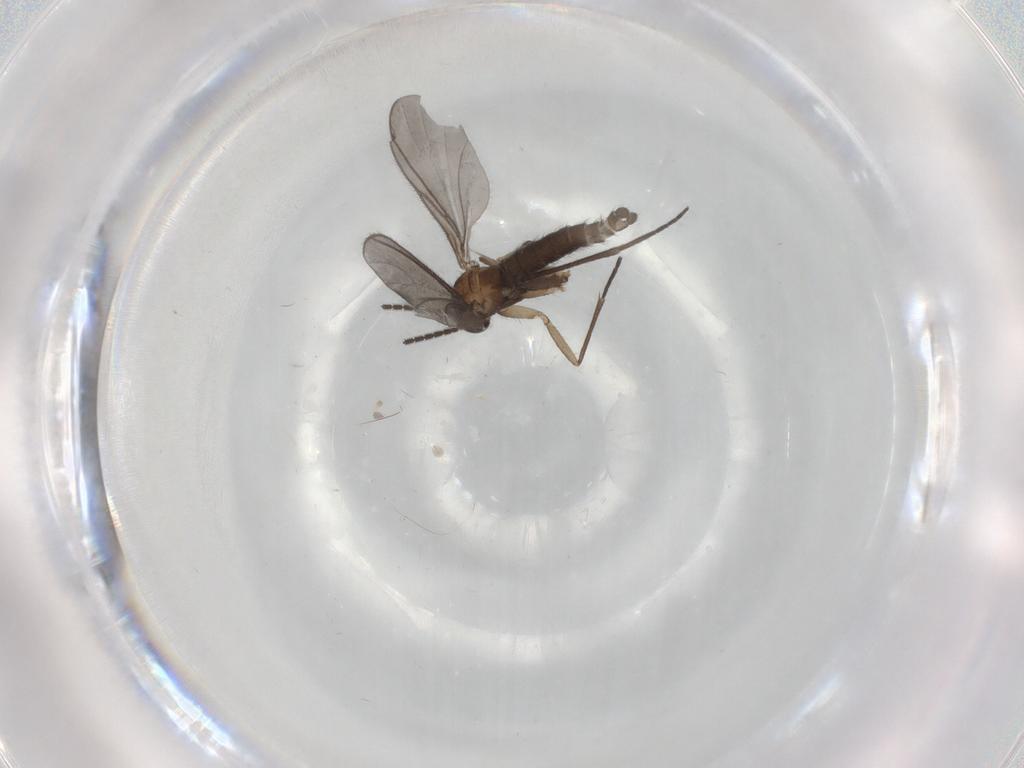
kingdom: Animalia
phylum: Arthropoda
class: Insecta
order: Diptera
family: Sciaridae
